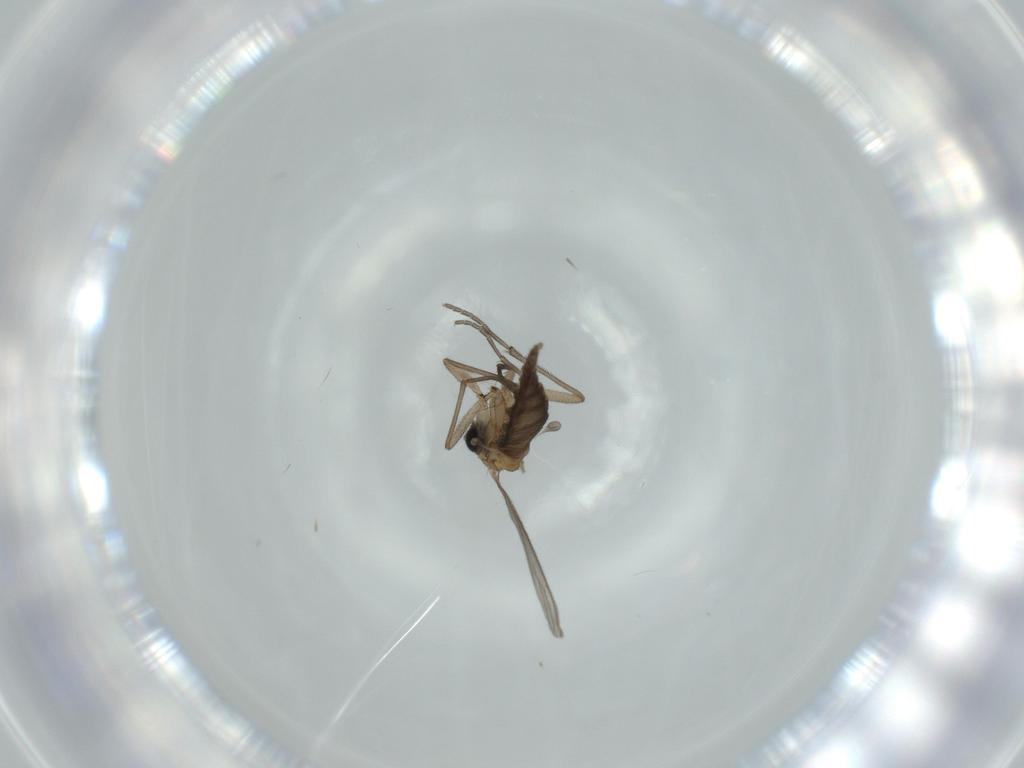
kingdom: Animalia
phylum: Arthropoda
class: Insecta
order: Diptera
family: Sciaridae
